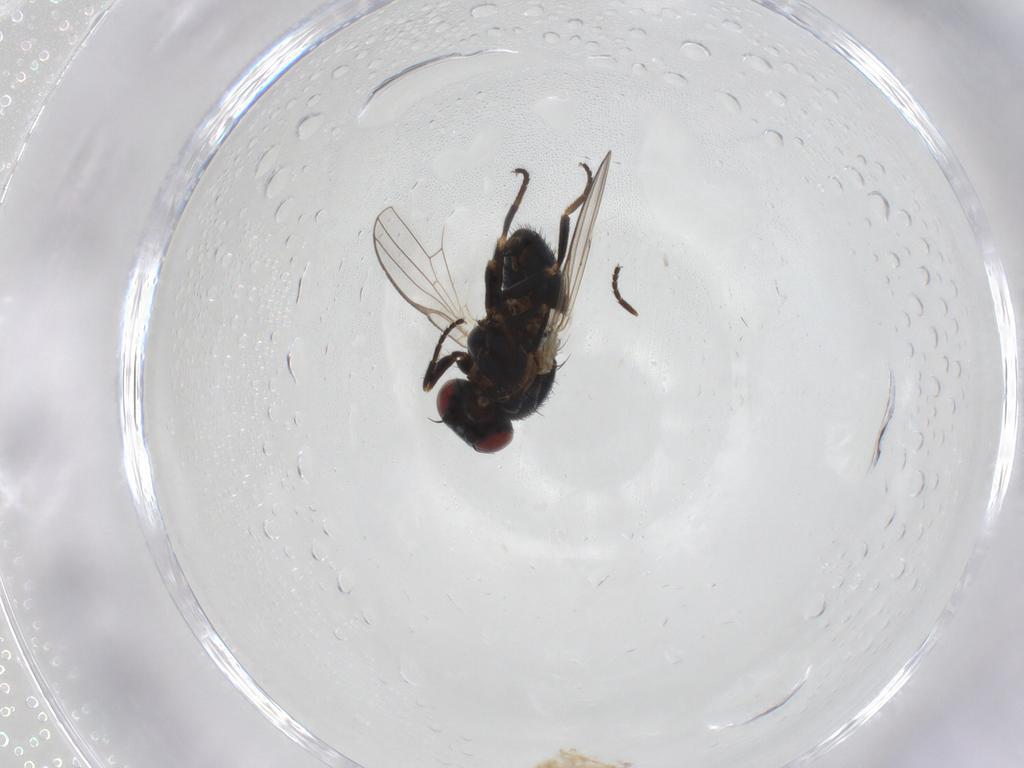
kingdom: Animalia
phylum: Arthropoda
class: Insecta
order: Diptera
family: Chamaemyiidae
